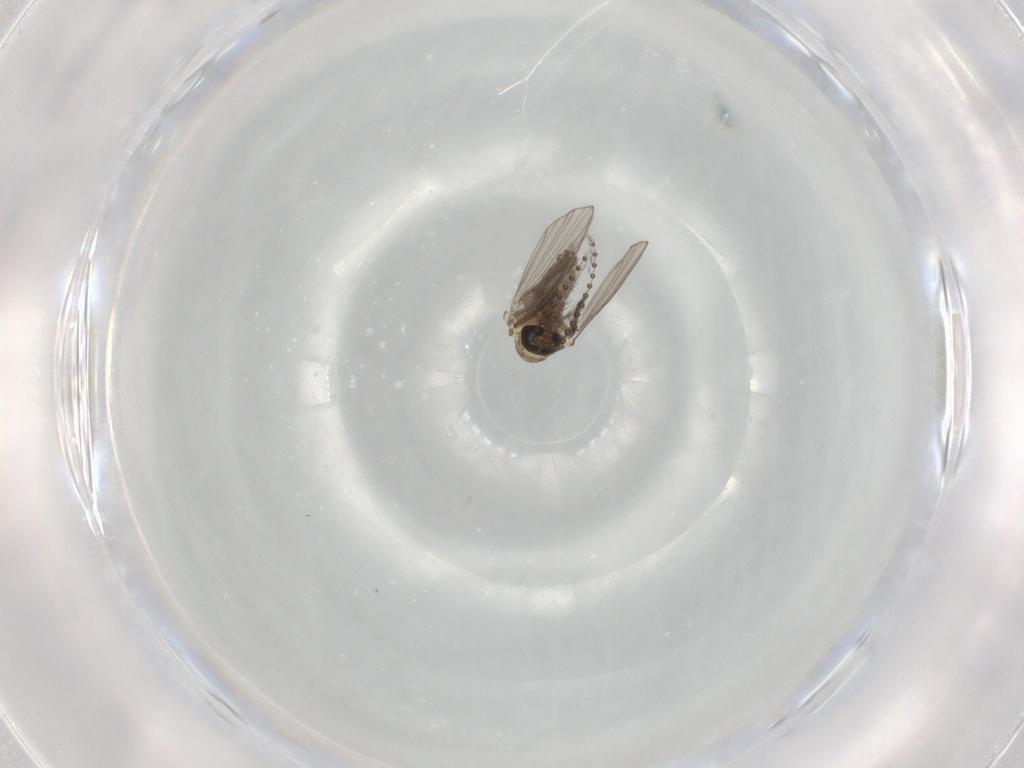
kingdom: Animalia
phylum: Arthropoda
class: Insecta
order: Diptera
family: Psychodidae
